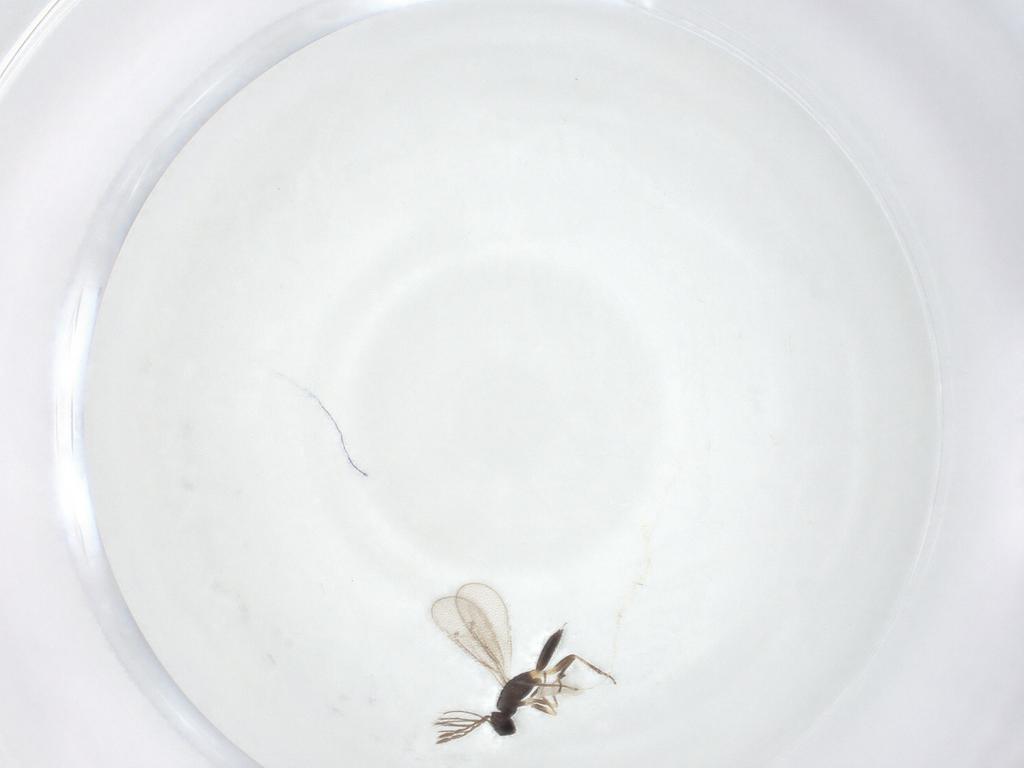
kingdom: Animalia
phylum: Arthropoda
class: Insecta
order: Hymenoptera
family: Eulophidae
